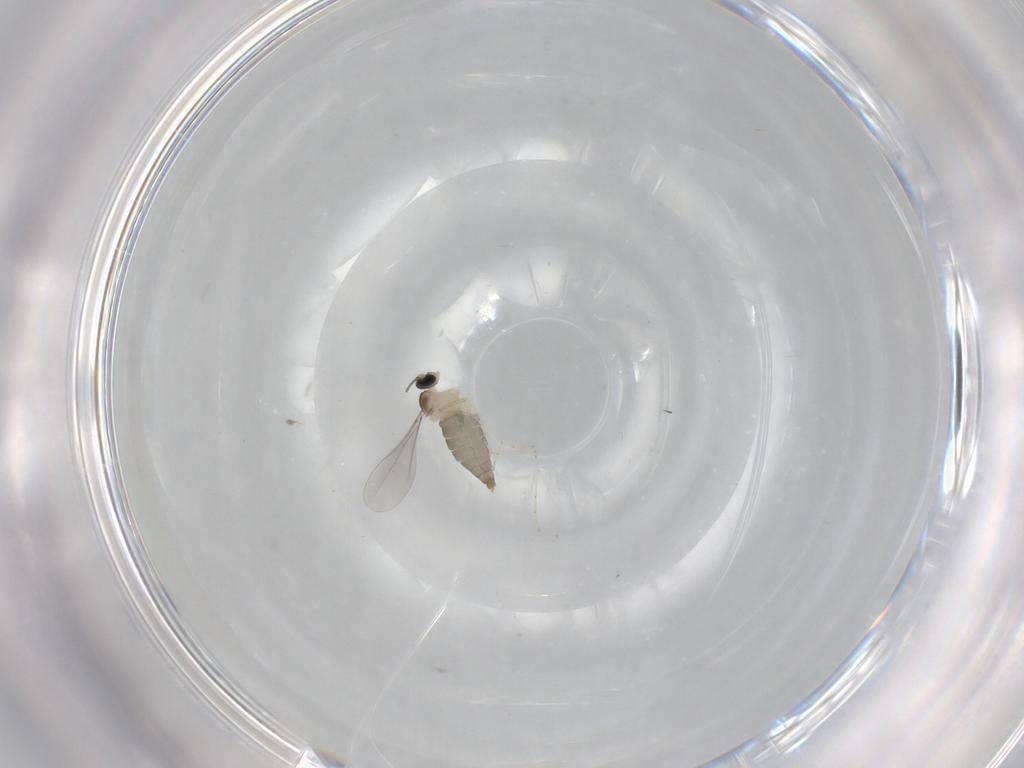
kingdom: Animalia
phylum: Arthropoda
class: Insecta
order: Diptera
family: Cecidomyiidae
